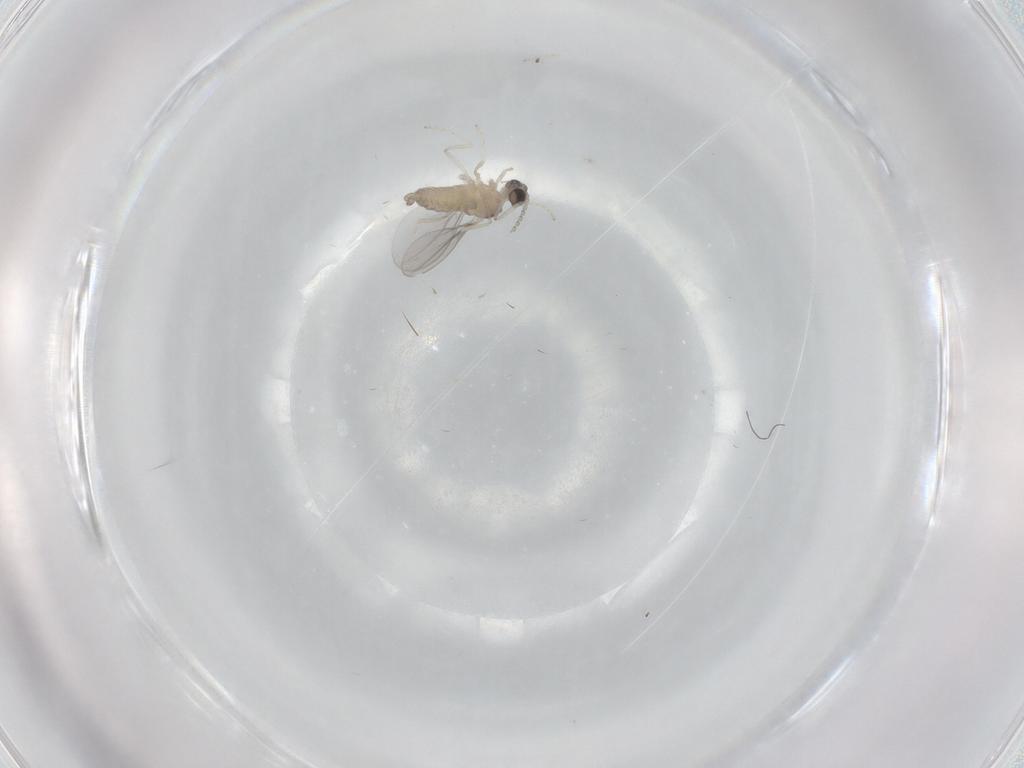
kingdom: Animalia
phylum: Arthropoda
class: Insecta
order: Diptera
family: Cecidomyiidae
